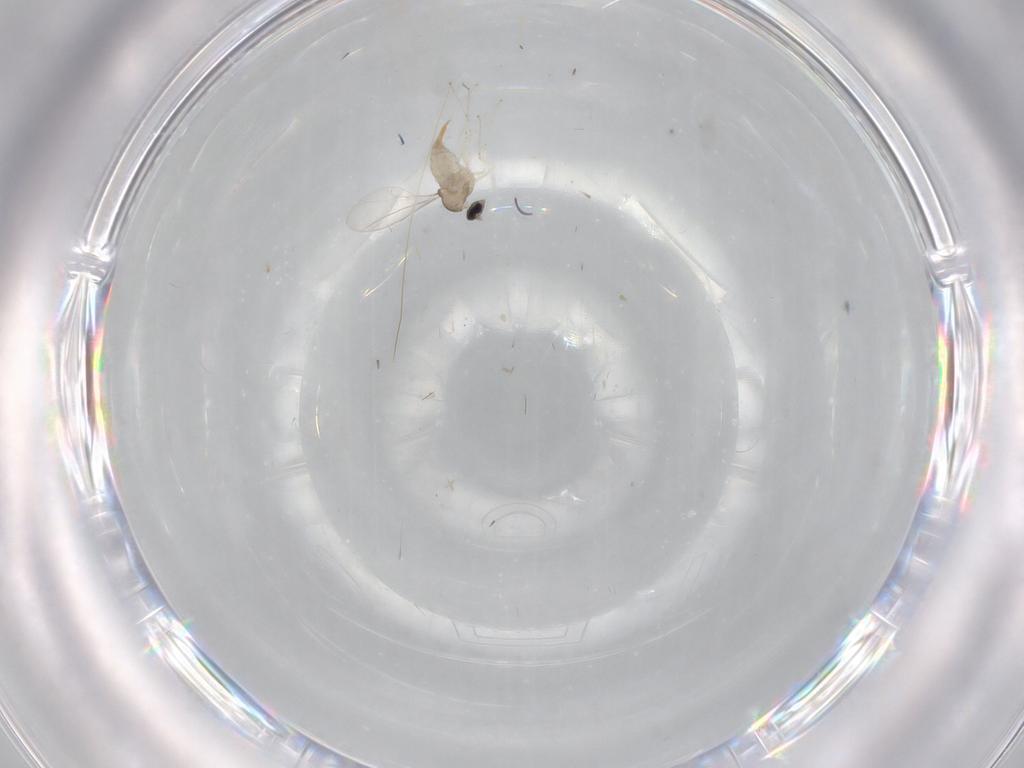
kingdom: Animalia
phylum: Arthropoda
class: Insecta
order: Diptera
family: Cecidomyiidae
